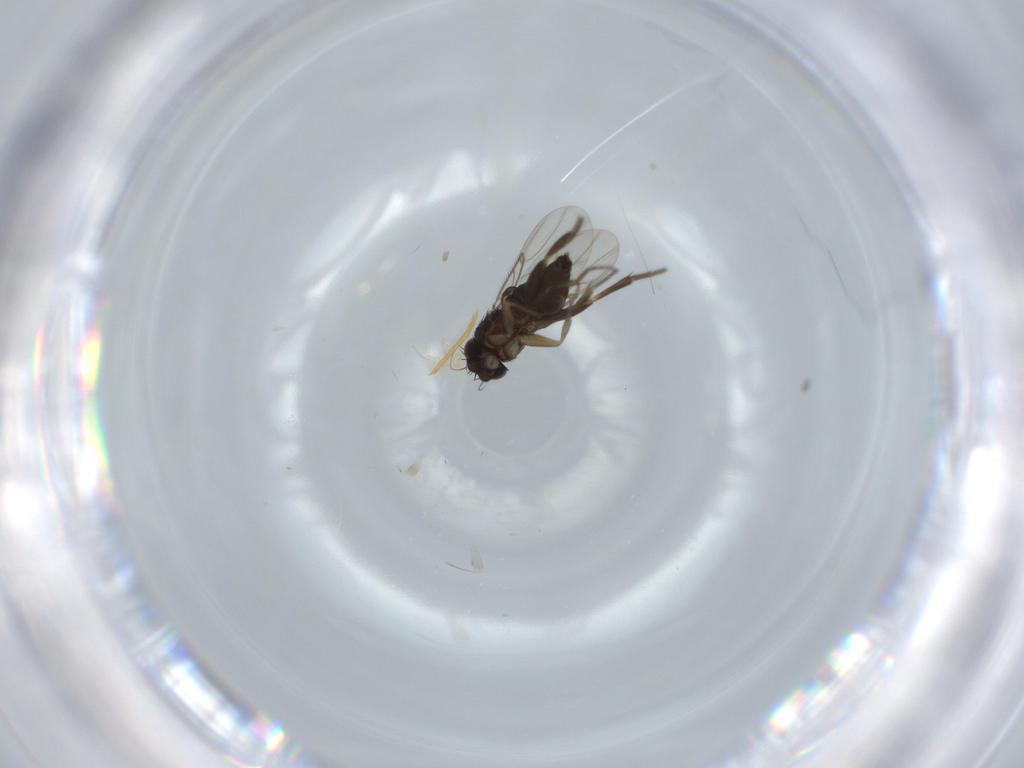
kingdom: Animalia
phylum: Arthropoda
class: Insecta
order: Diptera
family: Phoridae
